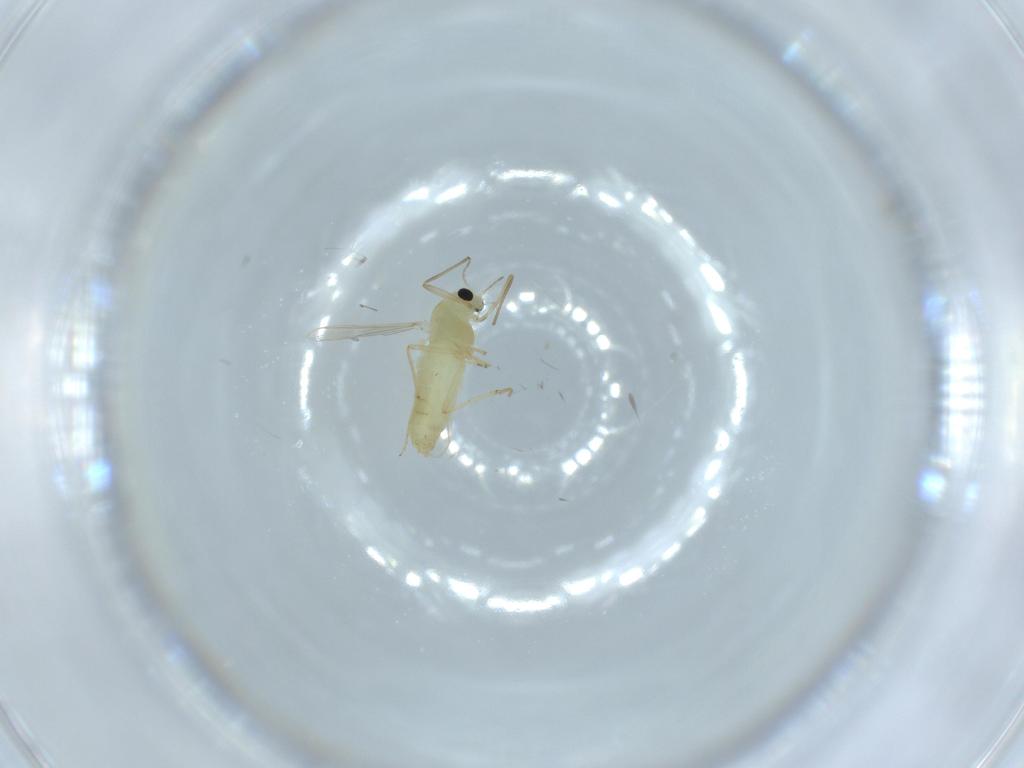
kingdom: Animalia
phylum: Arthropoda
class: Insecta
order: Diptera
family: Chironomidae
